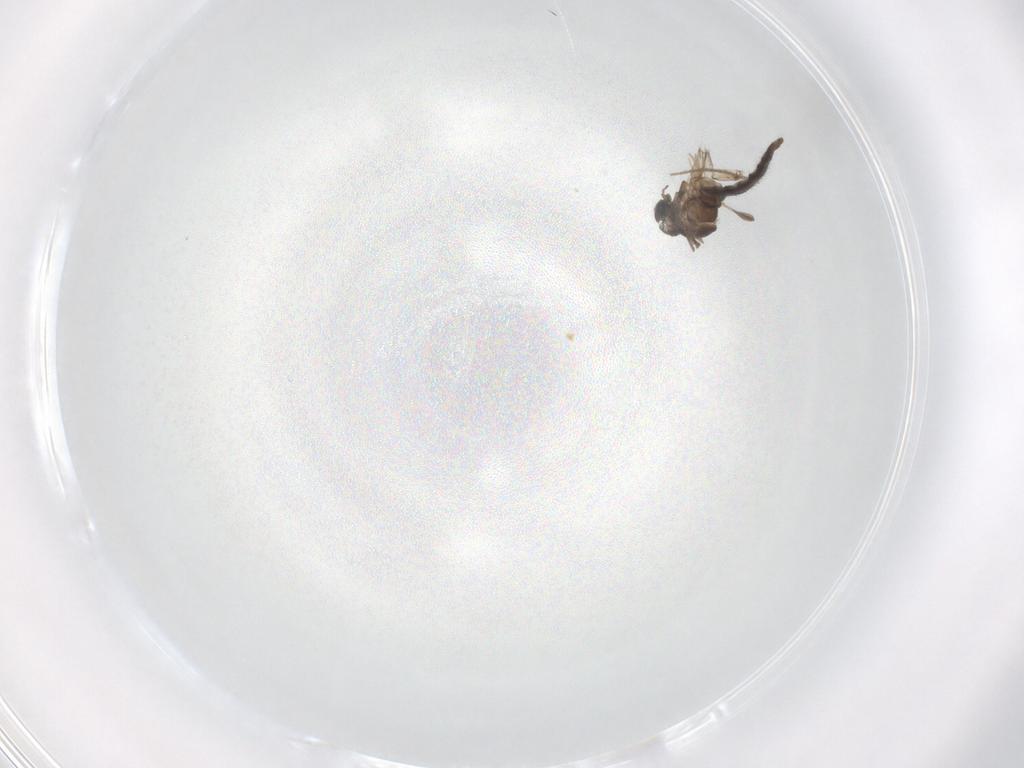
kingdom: Animalia
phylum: Arthropoda
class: Insecta
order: Diptera
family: Chironomidae
